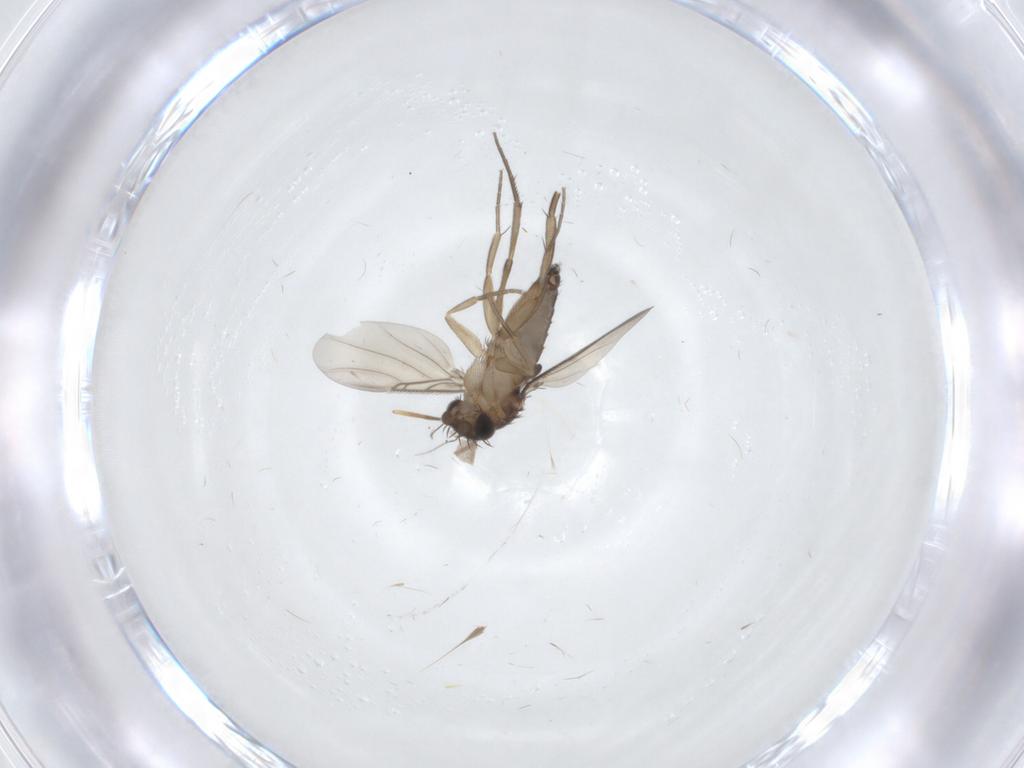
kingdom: Animalia
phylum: Arthropoda
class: Insecta
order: Diptera
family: Phoridae
